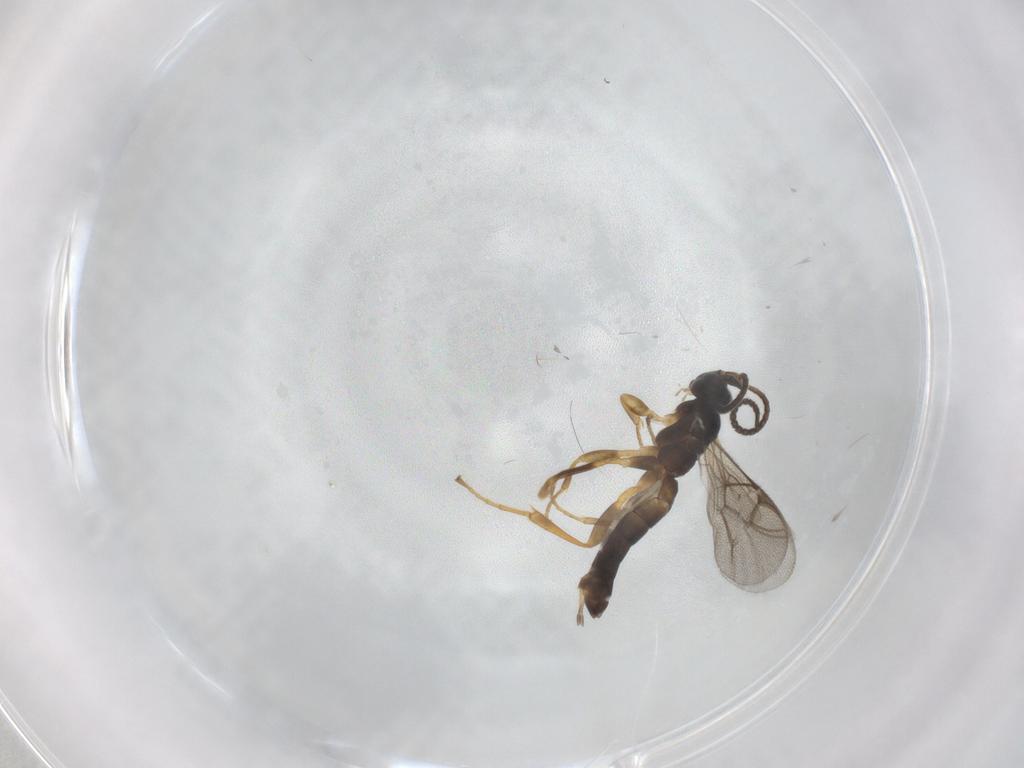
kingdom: Animalia
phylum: Arthropoda
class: Insecta
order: Hymenoptera
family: Ichneumonidae
